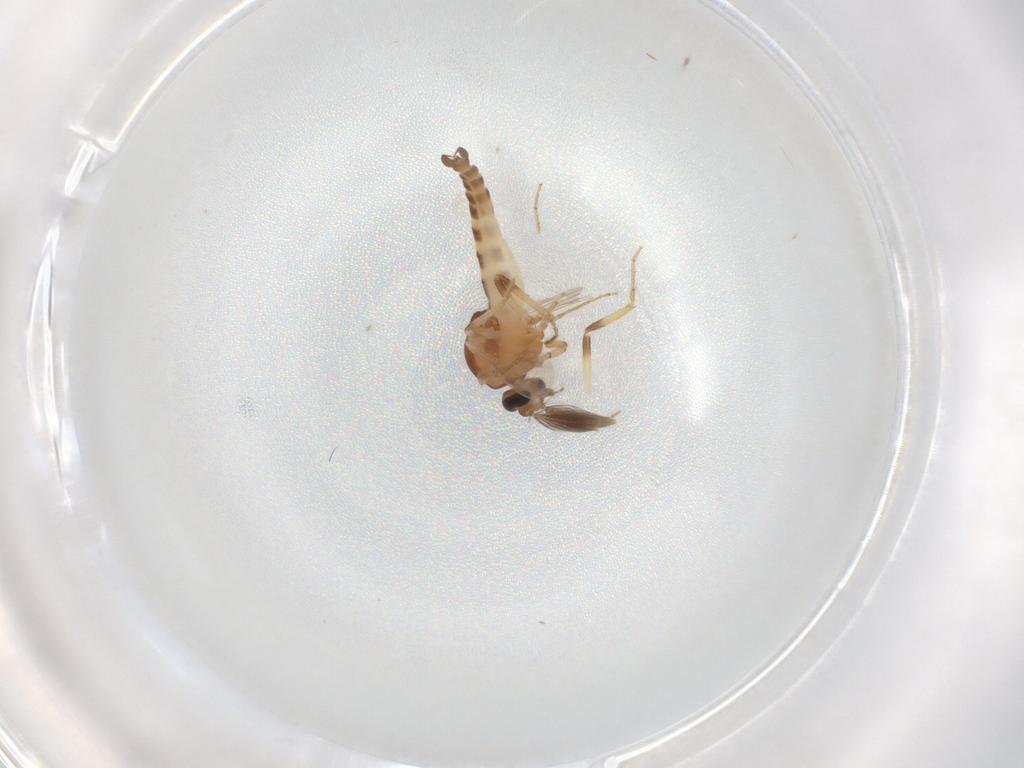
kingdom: Animalia
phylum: Arthropoda
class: Insecta
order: Diptera
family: Ceratopogonidae
